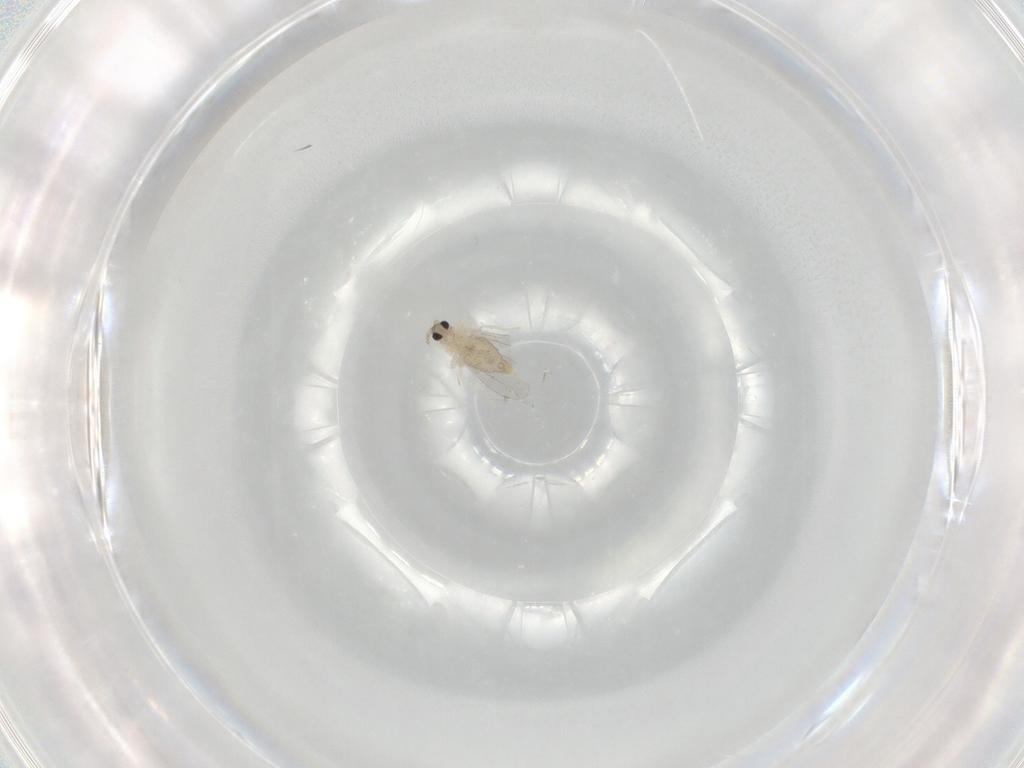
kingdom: Animalia
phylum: Arthropoda
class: Insecta
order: Diptera
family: Cecidomyiidae
